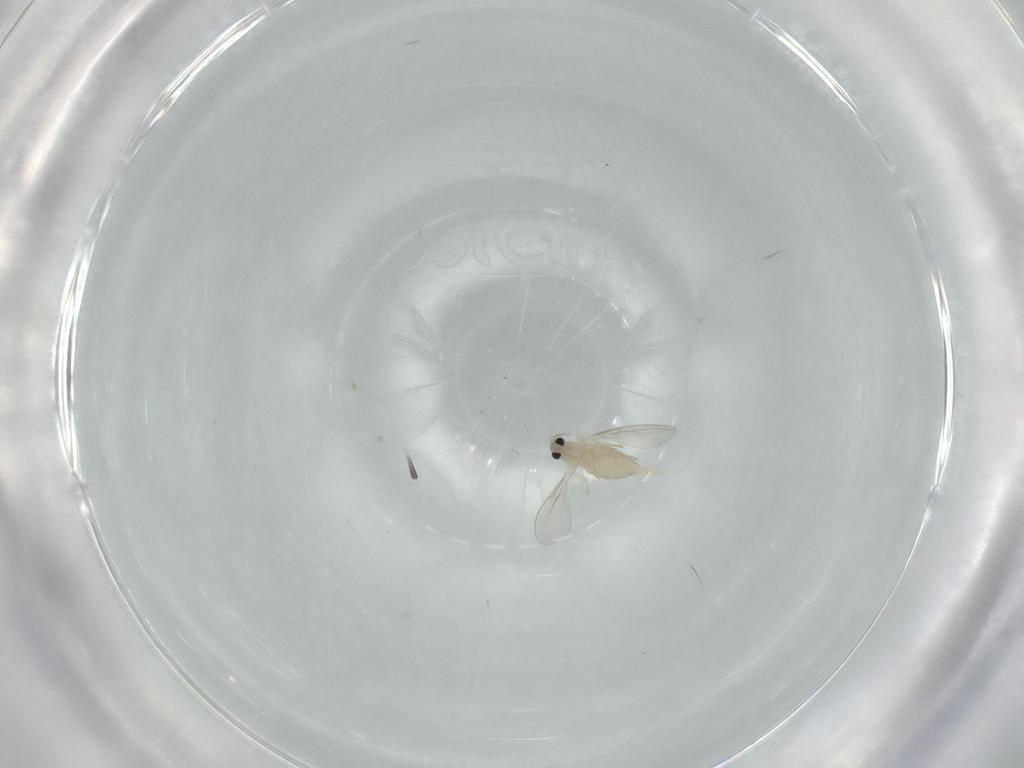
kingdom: Animalia
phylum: Arthropoda
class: Insecta
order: Diptera
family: Cecidomyiidae
